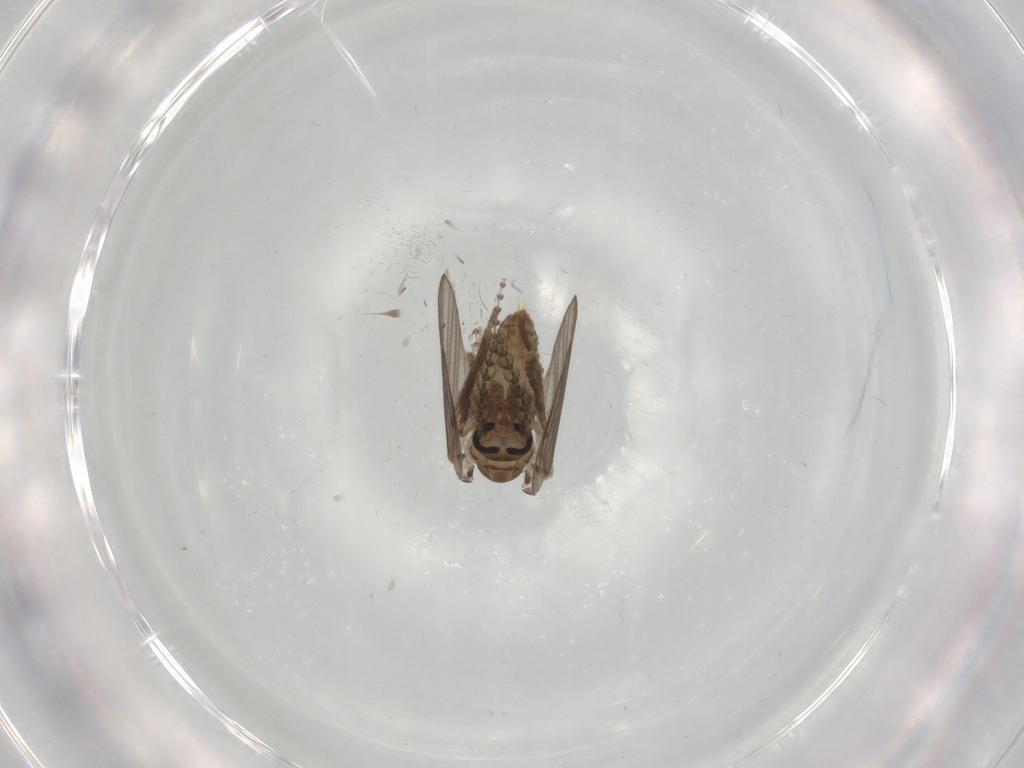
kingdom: Animalia
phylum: Arthropoda
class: Insecta
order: Diptera
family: Psychodidae
